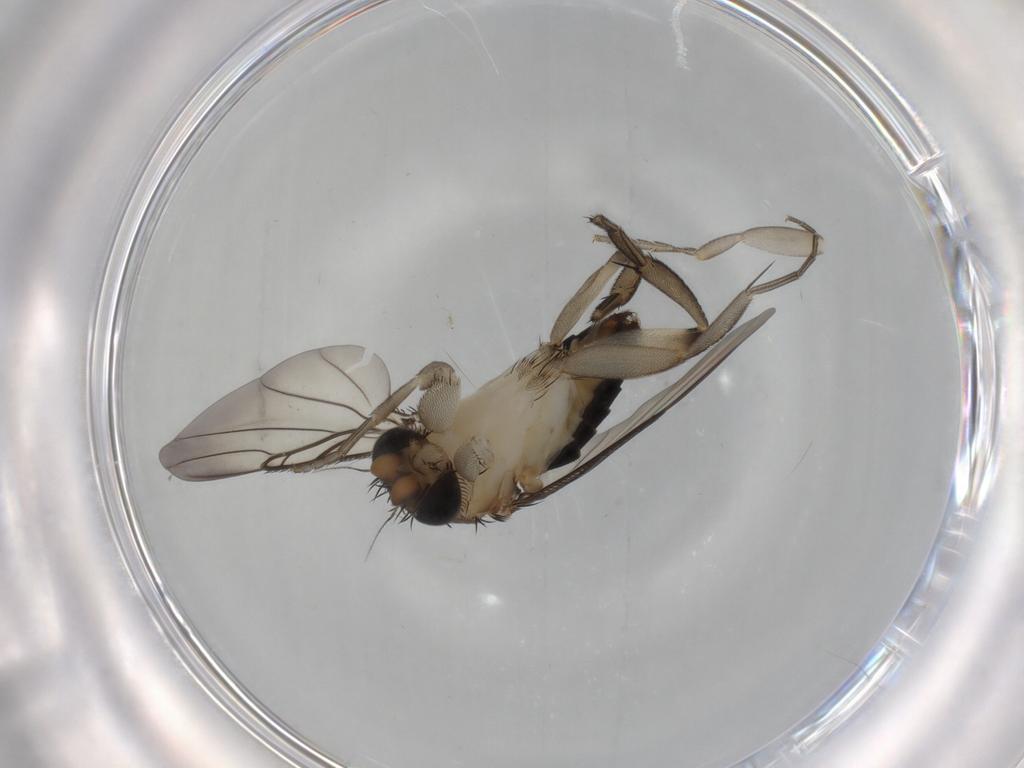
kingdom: Animalia
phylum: Arthropoda
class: Insecta
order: Diptera
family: Phoridae
